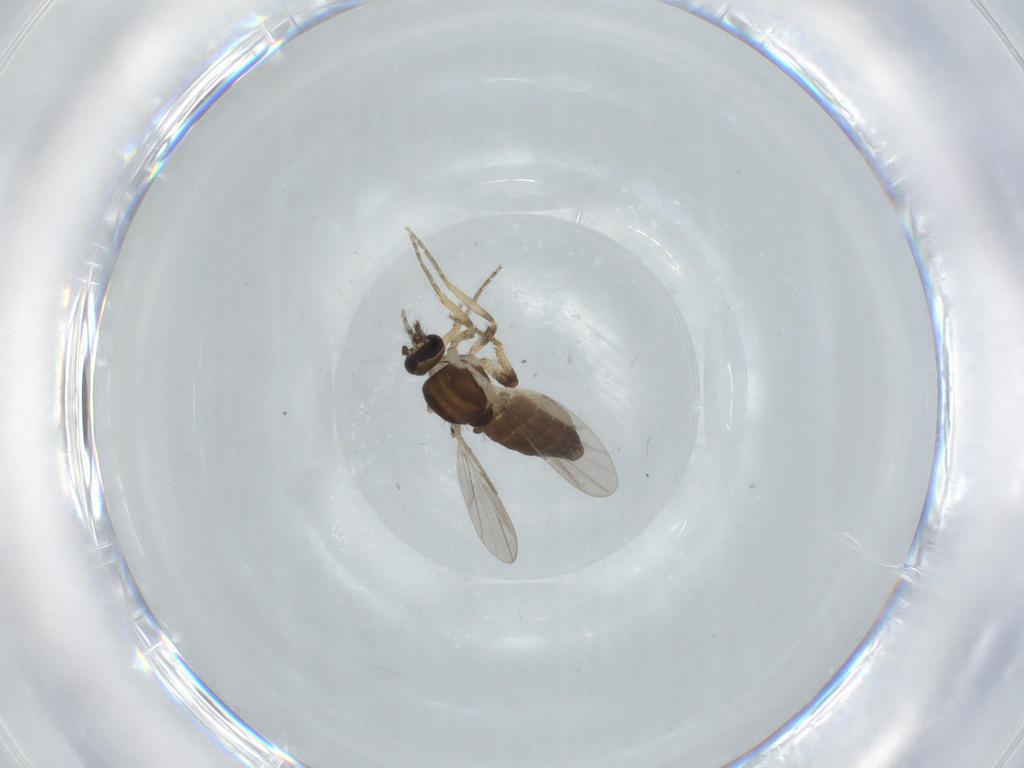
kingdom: Animalia
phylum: Arthropoda
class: Insecta
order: Diptera
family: Ceratopogonidae
